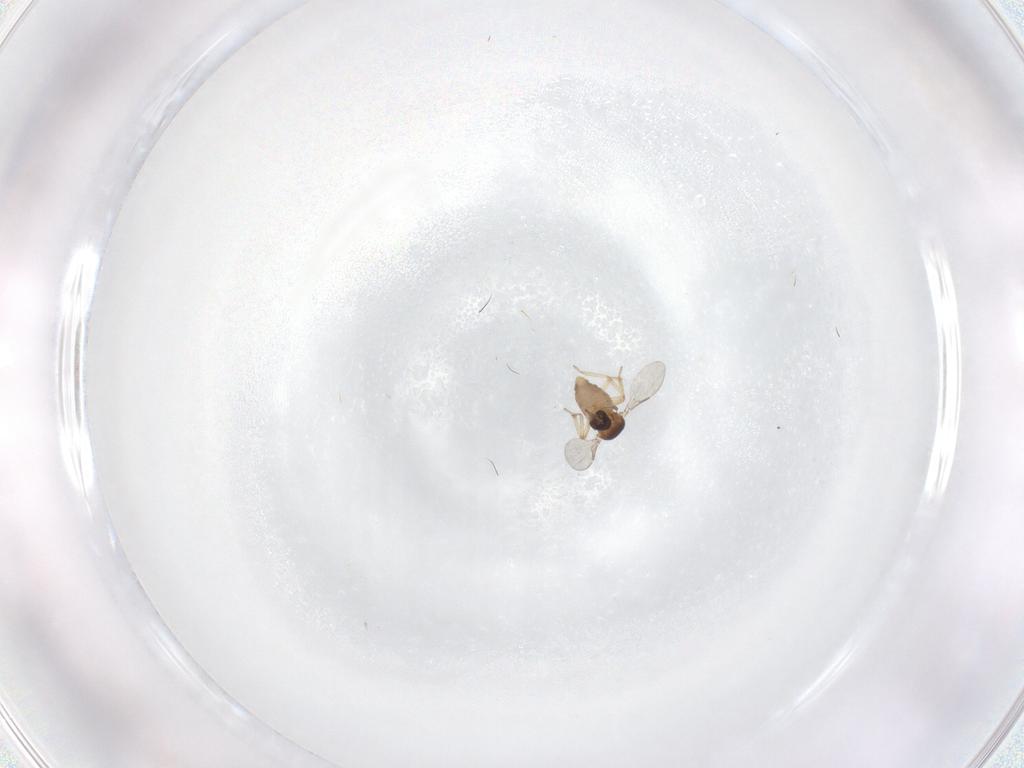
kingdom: Animalia
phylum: Arthropoda
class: Insecta
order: Diptera
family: Ceratopogonidae
